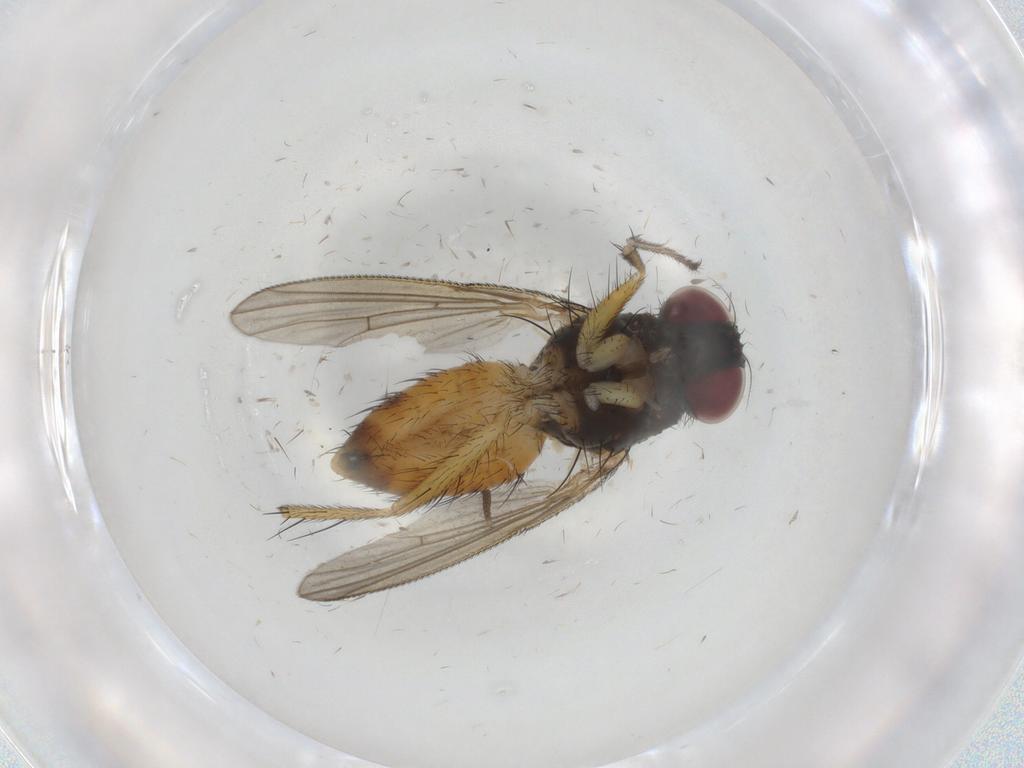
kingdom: Animalia
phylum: Arthropoda
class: Insecta
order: Diptera
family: Muscidae
